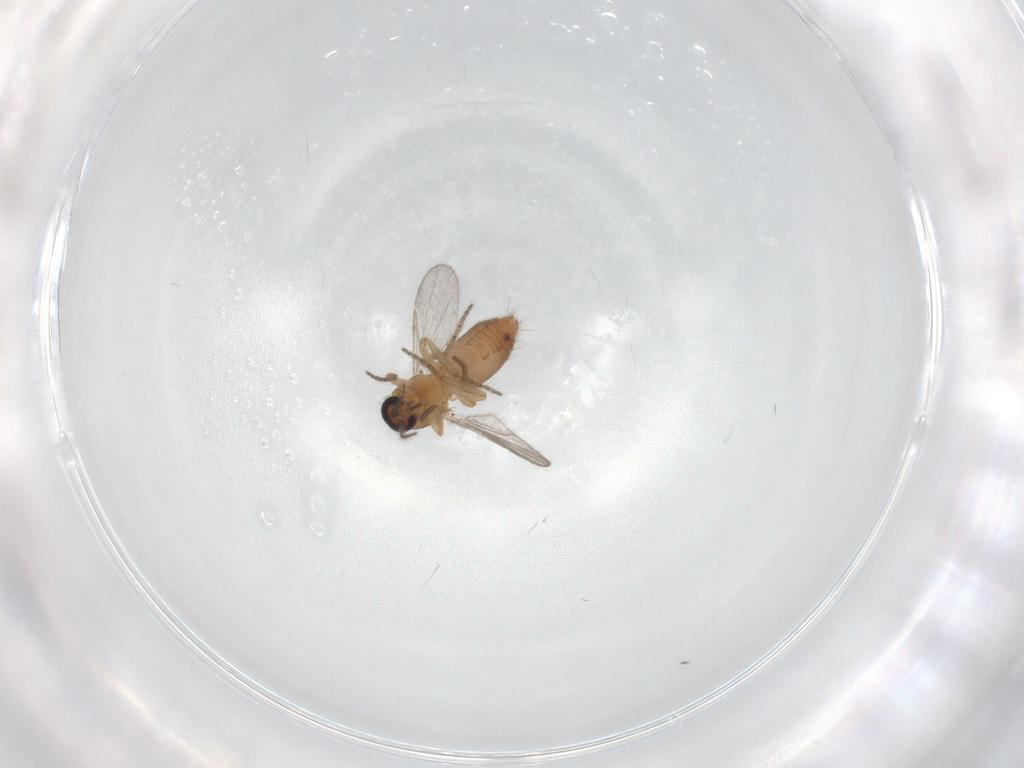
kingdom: Animalia
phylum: Arthropoda
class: Insecta
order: Diptera
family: Ceratopogonidae
